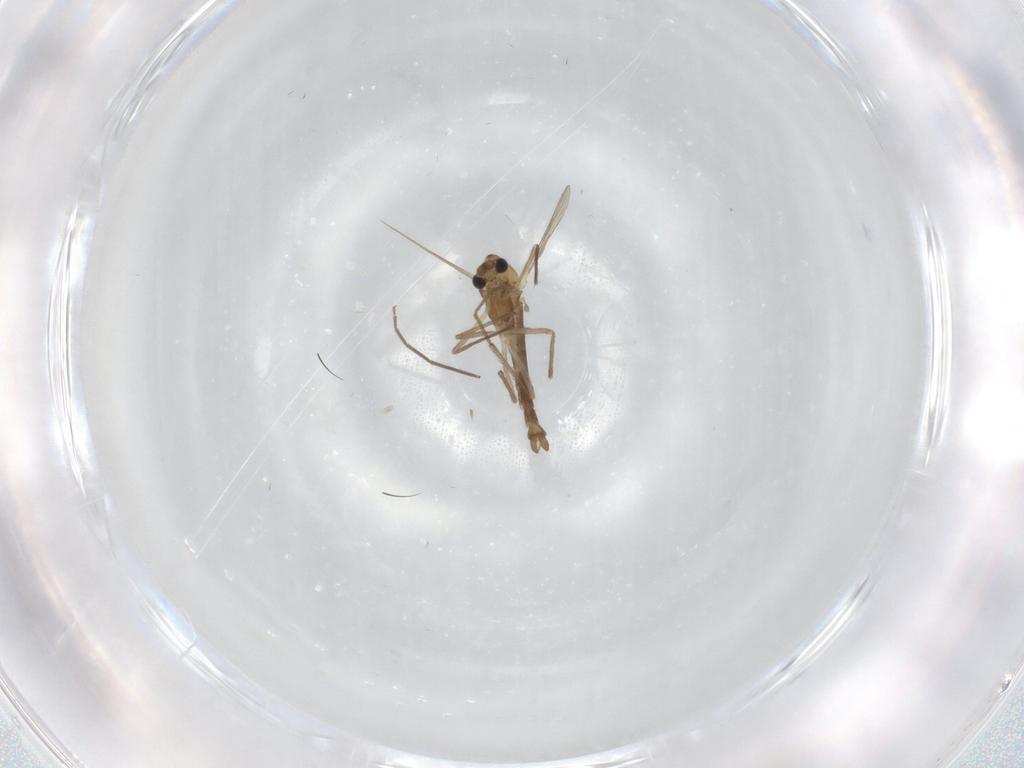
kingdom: Animalia
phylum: Arthropoda
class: Insecta
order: Diptera
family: Chironomidae
